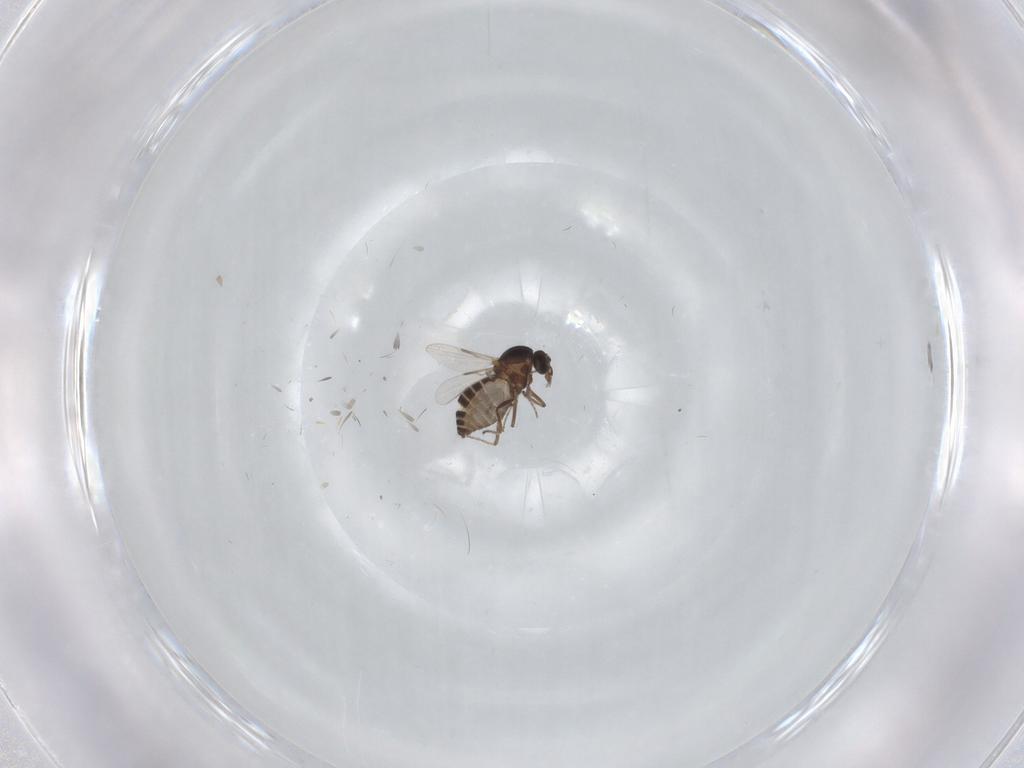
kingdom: Animalia
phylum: Arthropoda
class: Insecta
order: Diptera
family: Ceratopogonidae
